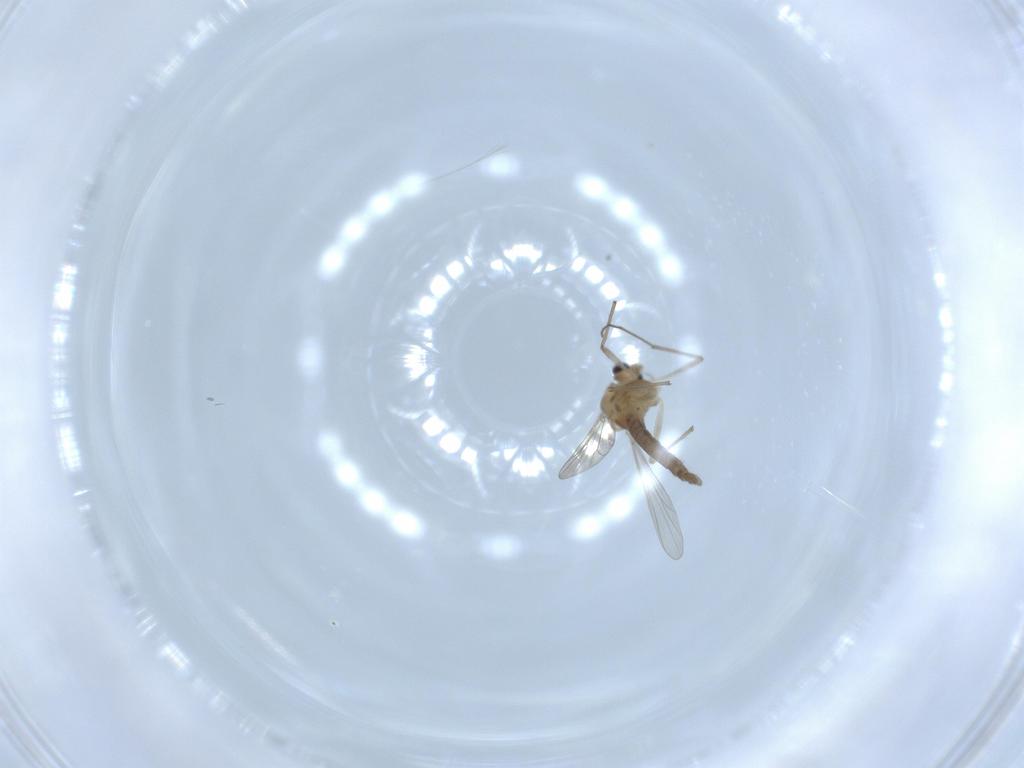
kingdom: Animalia
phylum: Arthropoda
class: Insecta
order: Diptera
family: Chironomidae
